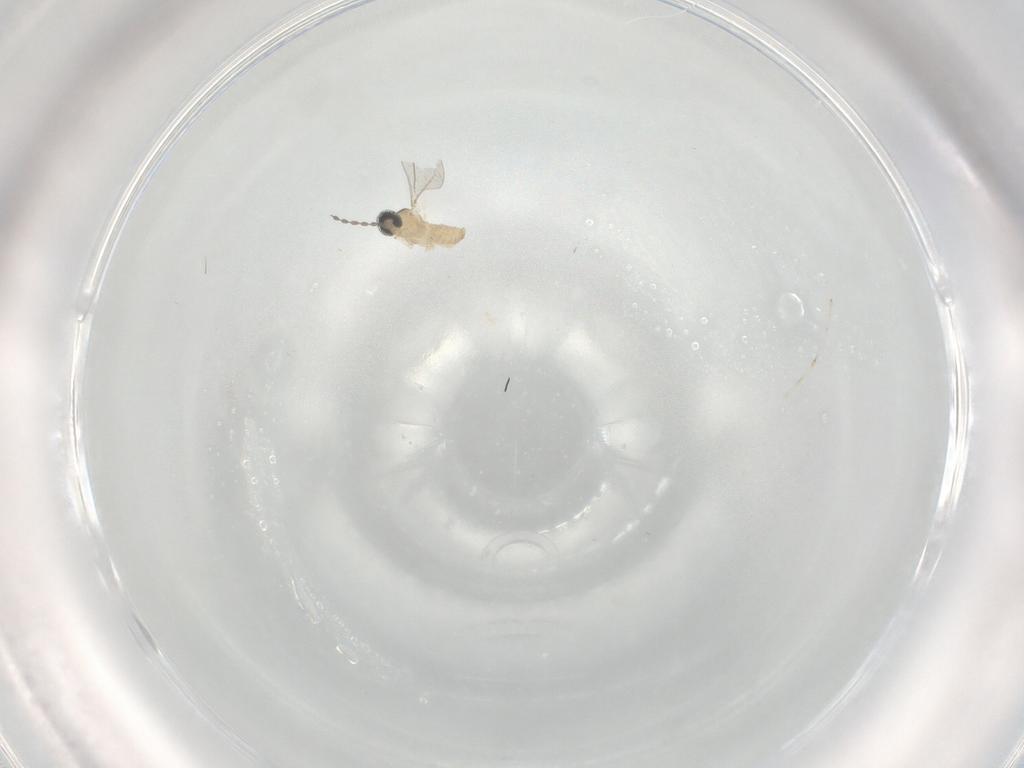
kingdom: Animalia
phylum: Arthropoda
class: Insecta
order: Diptera
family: Cecidomyiidae
